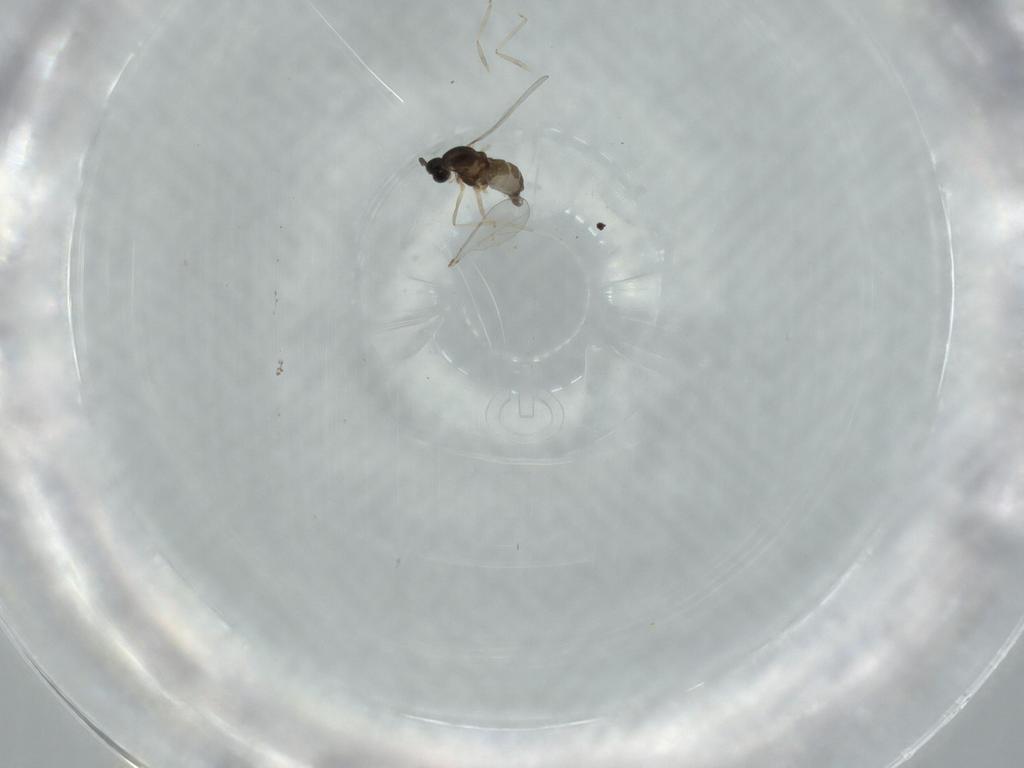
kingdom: Animalia
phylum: Arthropoda
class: Insecta
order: Diptera
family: Cecidomyiidae
